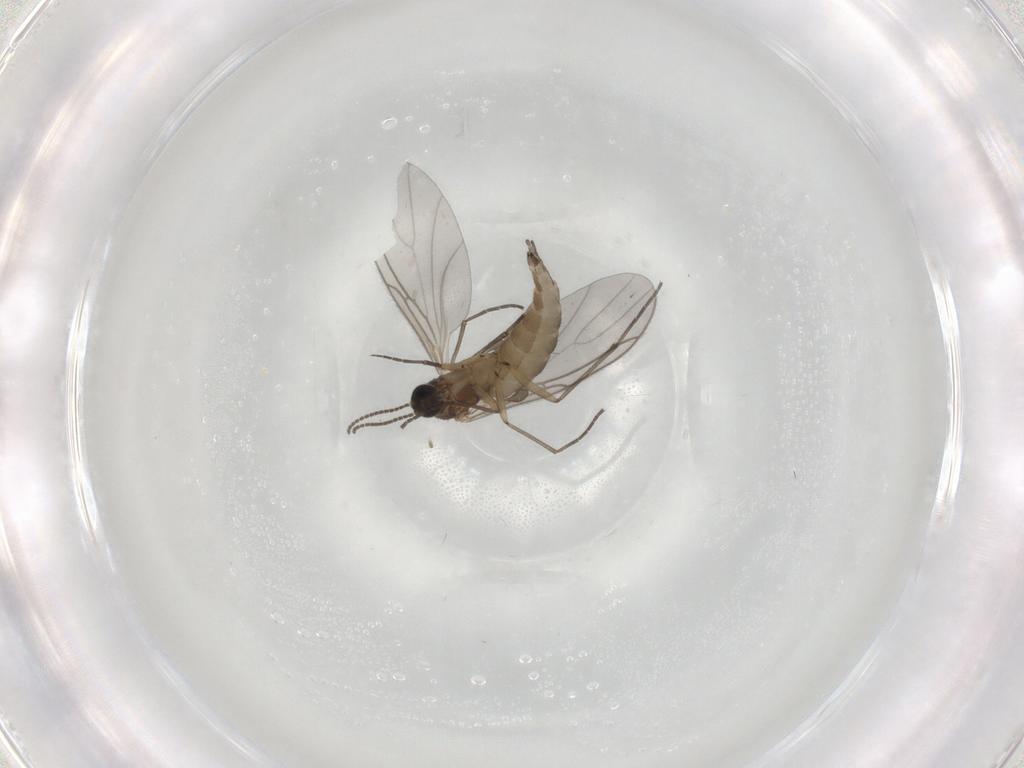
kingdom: Animalia
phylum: Arthropoda
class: Insecta
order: Diptera
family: Sciaridae
